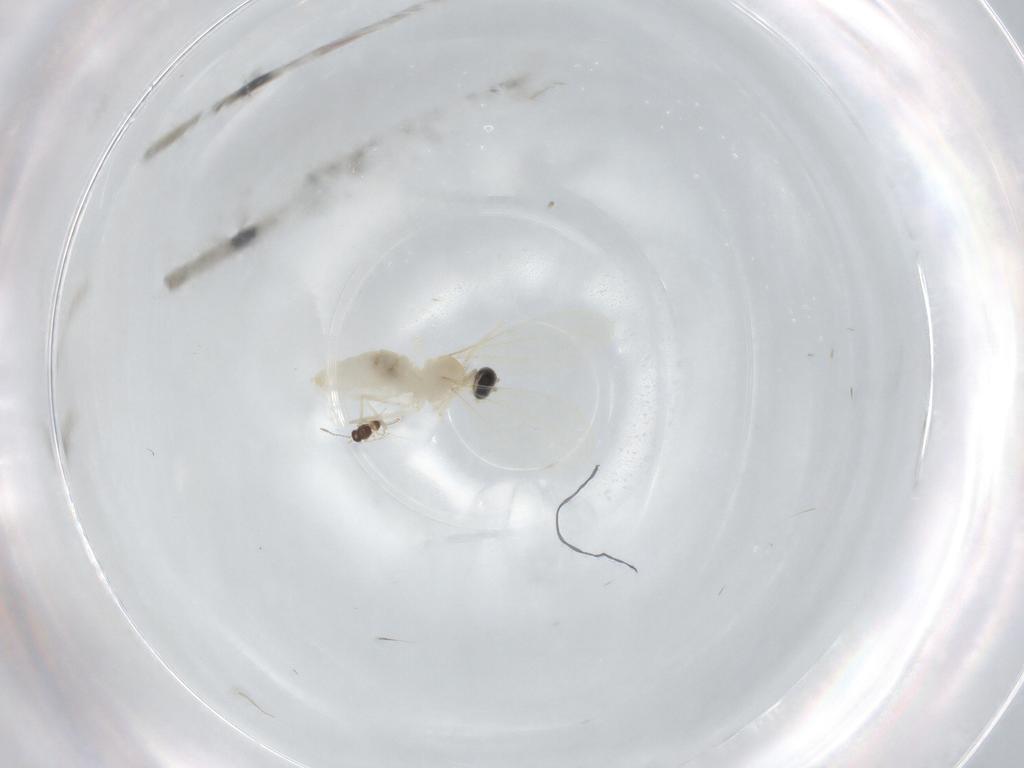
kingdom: Animalia
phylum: Arthropoda
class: Insecta
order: Diptera
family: Cecidomyiidae
